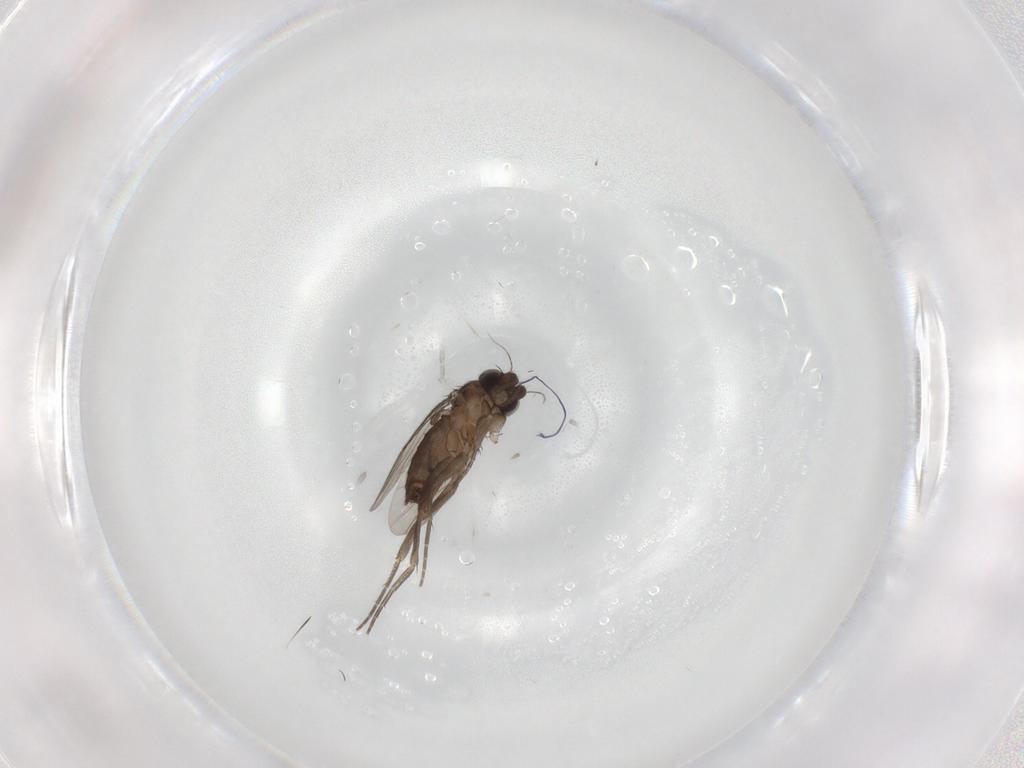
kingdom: Animalia
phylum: Arthropoda
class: Insecta
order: Diptera
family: Phoridae
